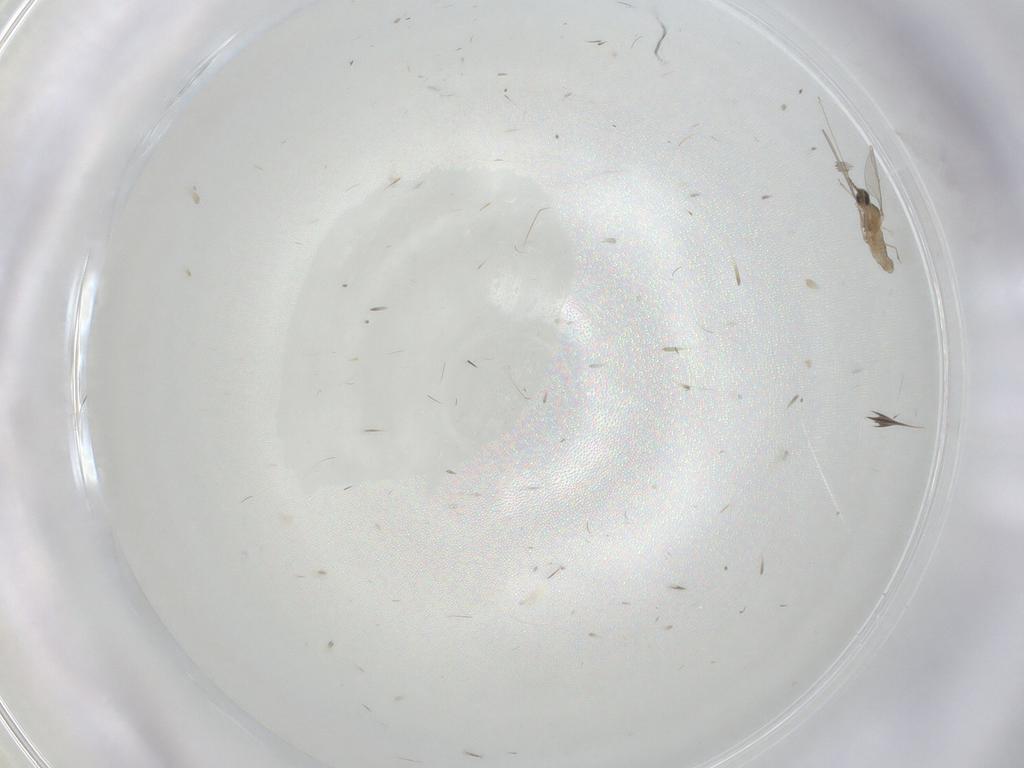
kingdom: Animalia
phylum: Arthropoda
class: Insecta
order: Diptera
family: Cecidomyiidae
